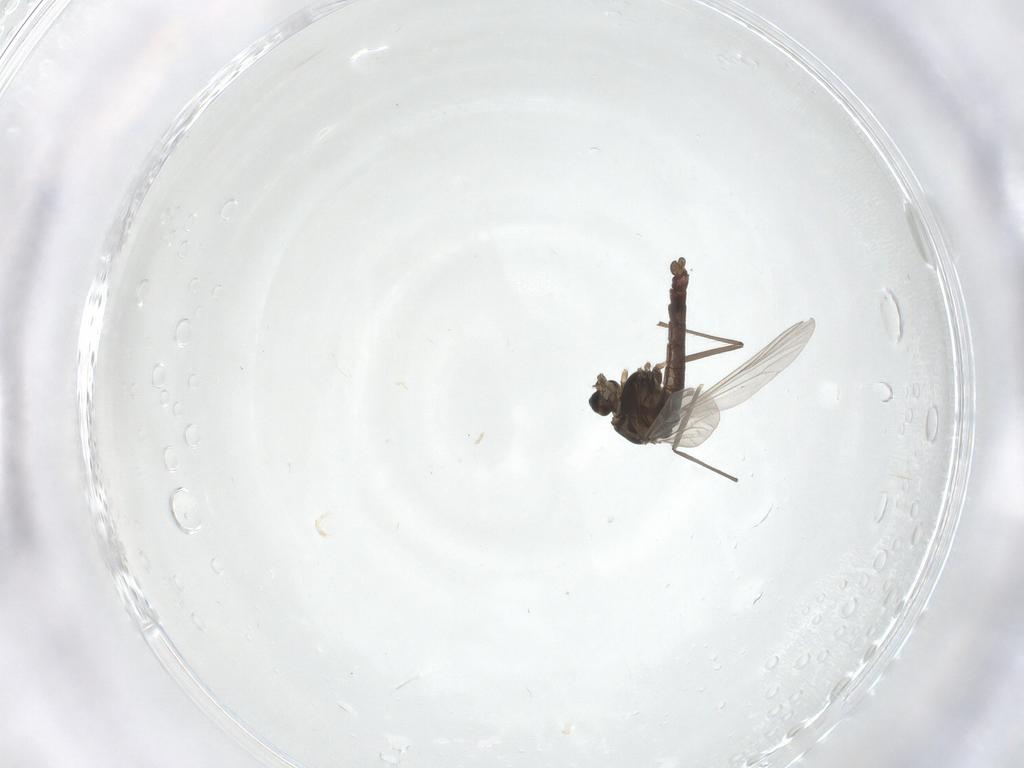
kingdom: Animalia
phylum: Arthropoda
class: Insecta
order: Diptera
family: Chironomidae
